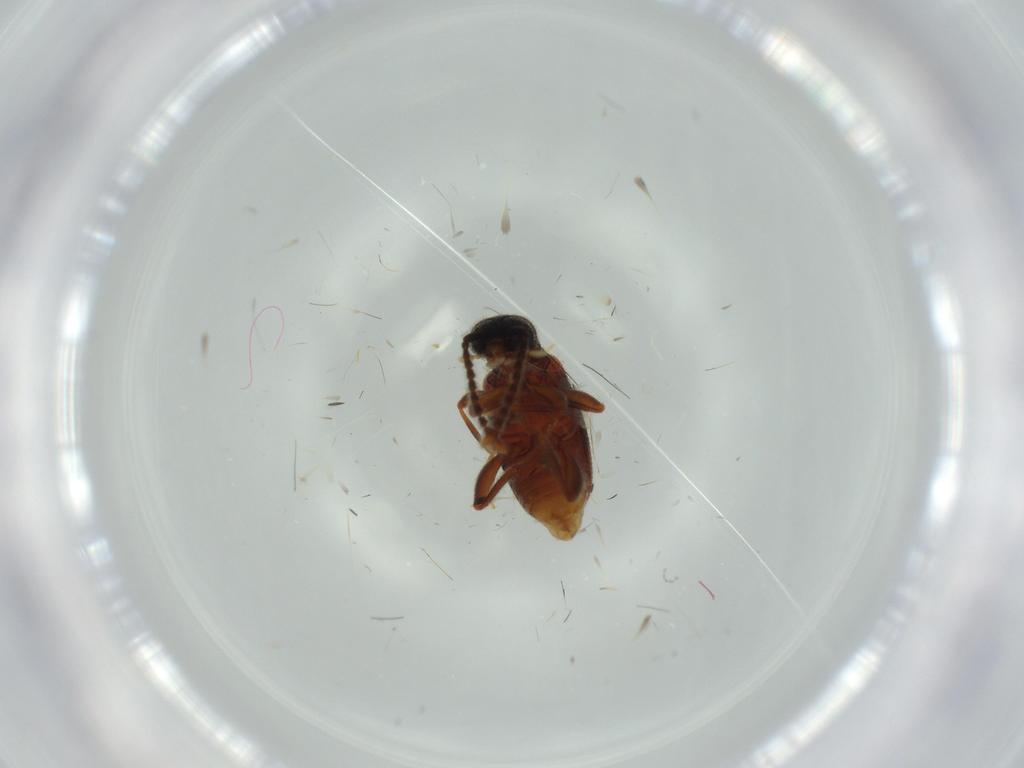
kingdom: Animalia
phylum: Arthropoda
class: Insecta
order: Coleoptera
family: Aderidae
